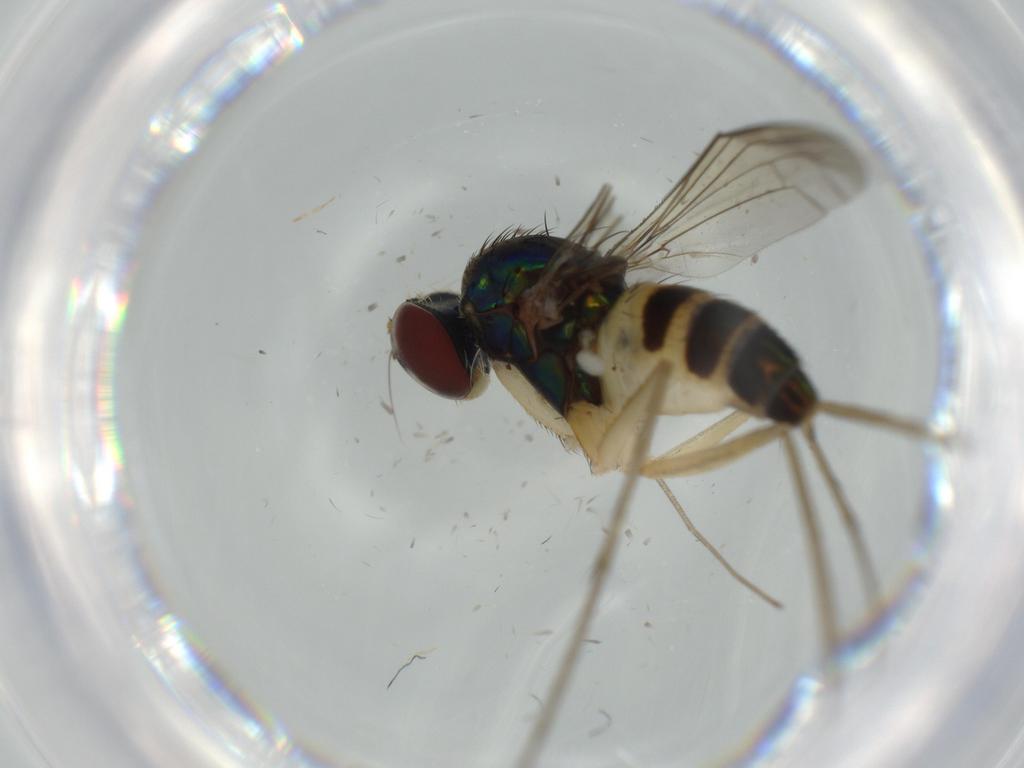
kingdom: Animalia
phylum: Arthropoda
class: Insecta
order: Diptera
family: Dolichopodidae
